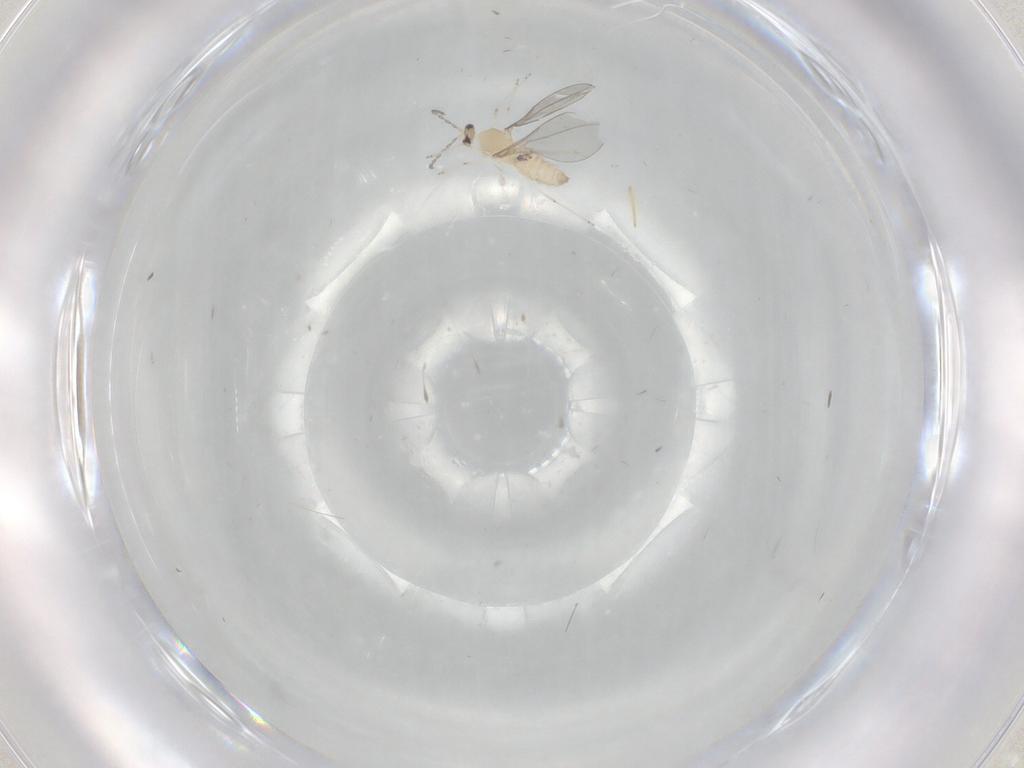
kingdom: Animalia
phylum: Arthropoda
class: Insecta
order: Diptera
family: Cecidomyiidae
